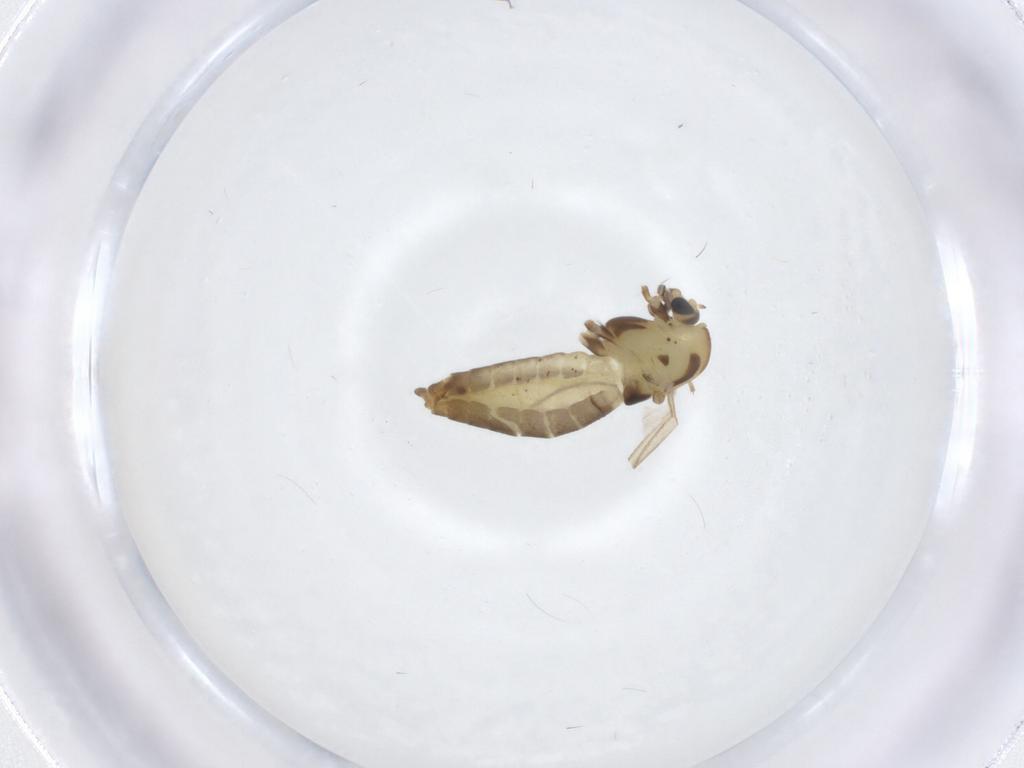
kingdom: Animalia
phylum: Arthropoda
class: Insecta
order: Diptera
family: Chironomidae
